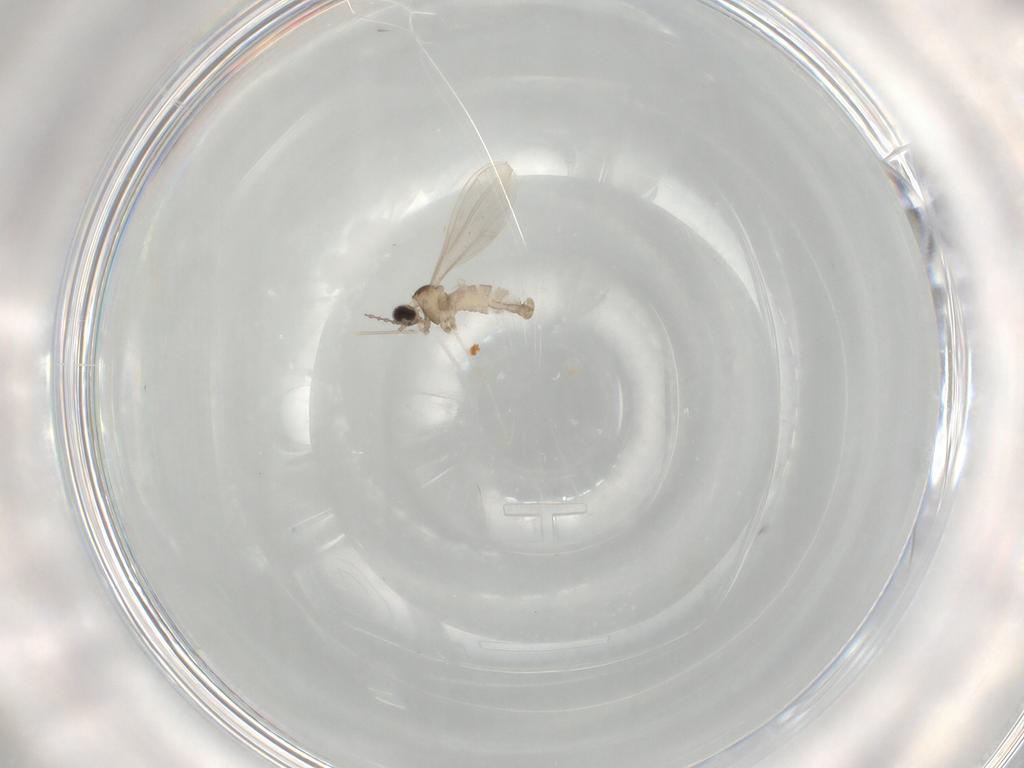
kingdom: Animalia
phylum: Arthropoda
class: Insecta
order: Diptera
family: Cecidomyiidae
